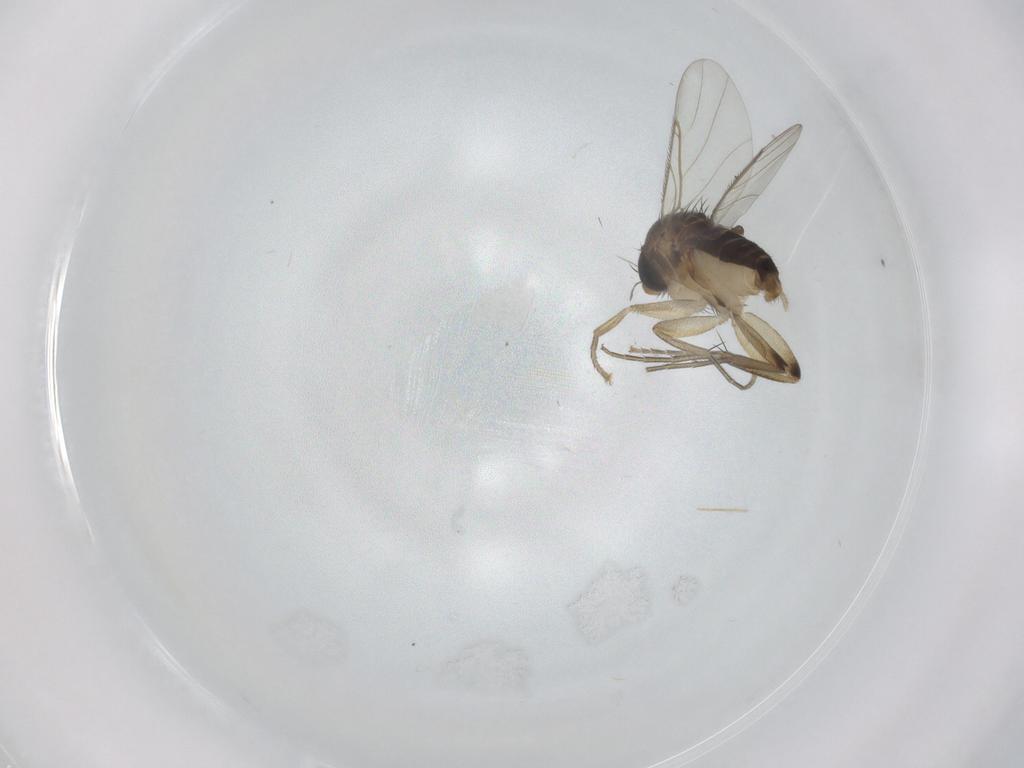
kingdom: Animalia
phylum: Arthropoda
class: Insecta
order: Diptera
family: Phoridae
